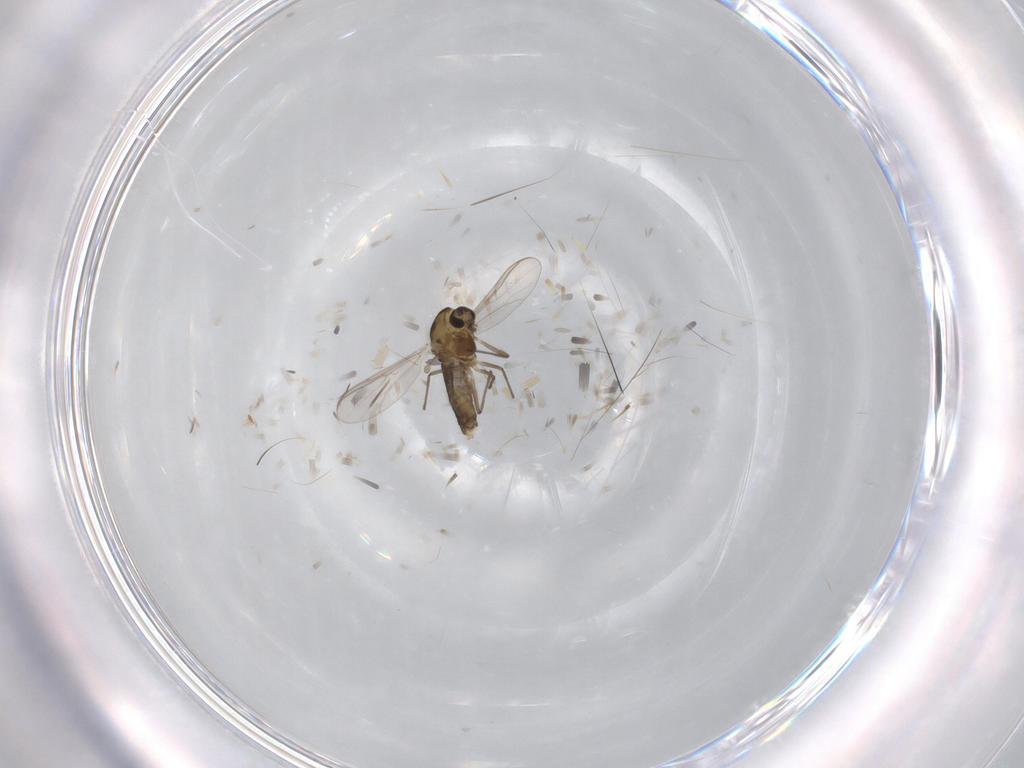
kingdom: Animalia
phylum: Arthropoda
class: Insecta
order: Diptera
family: Chironomidae
